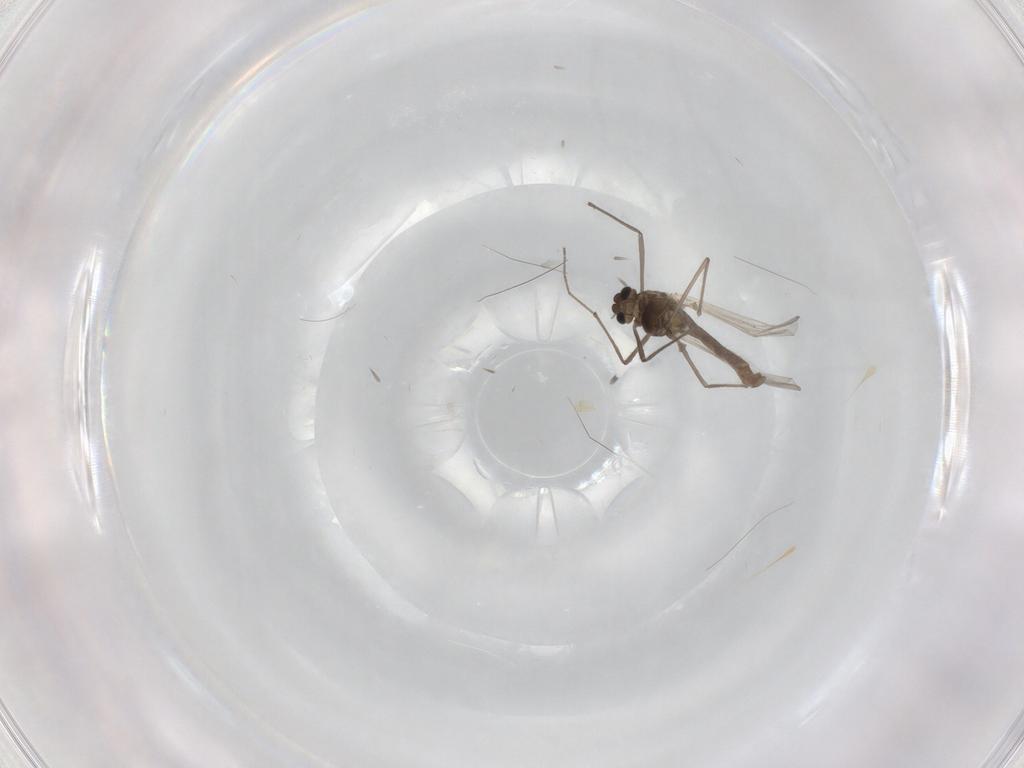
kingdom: Animalia
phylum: Arthropoda
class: Insecta
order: Diptera
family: Chironomidae
